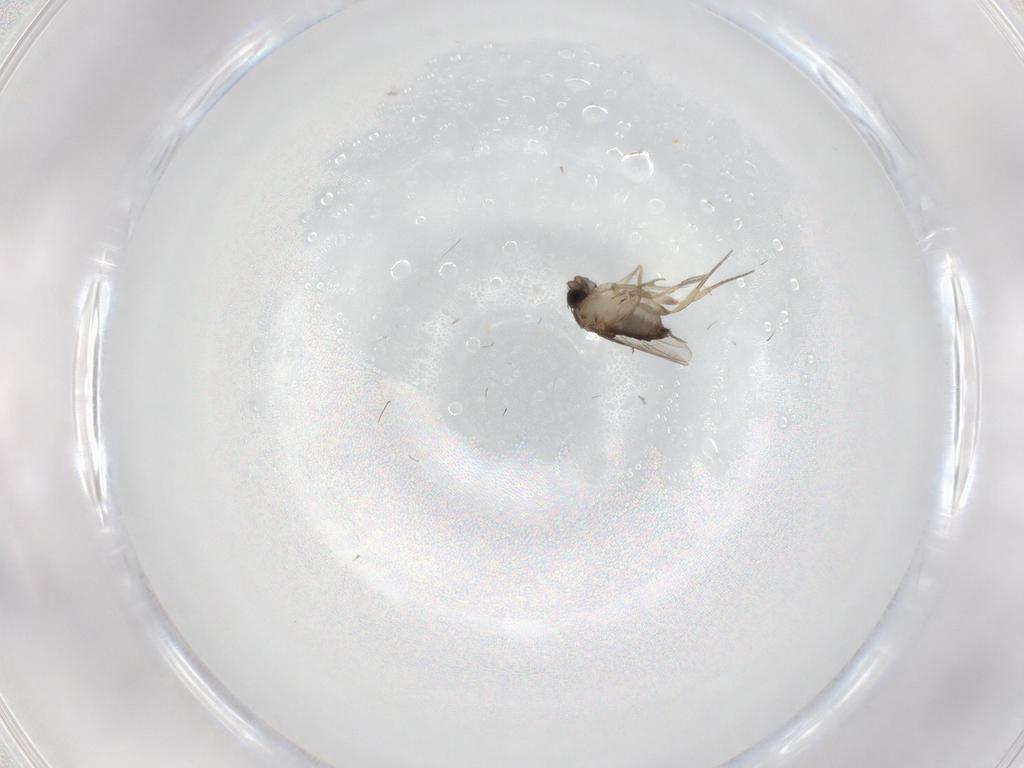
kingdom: Animalia
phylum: Arthropoda
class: Insecta
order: Diptera
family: Cecidomyiidae
